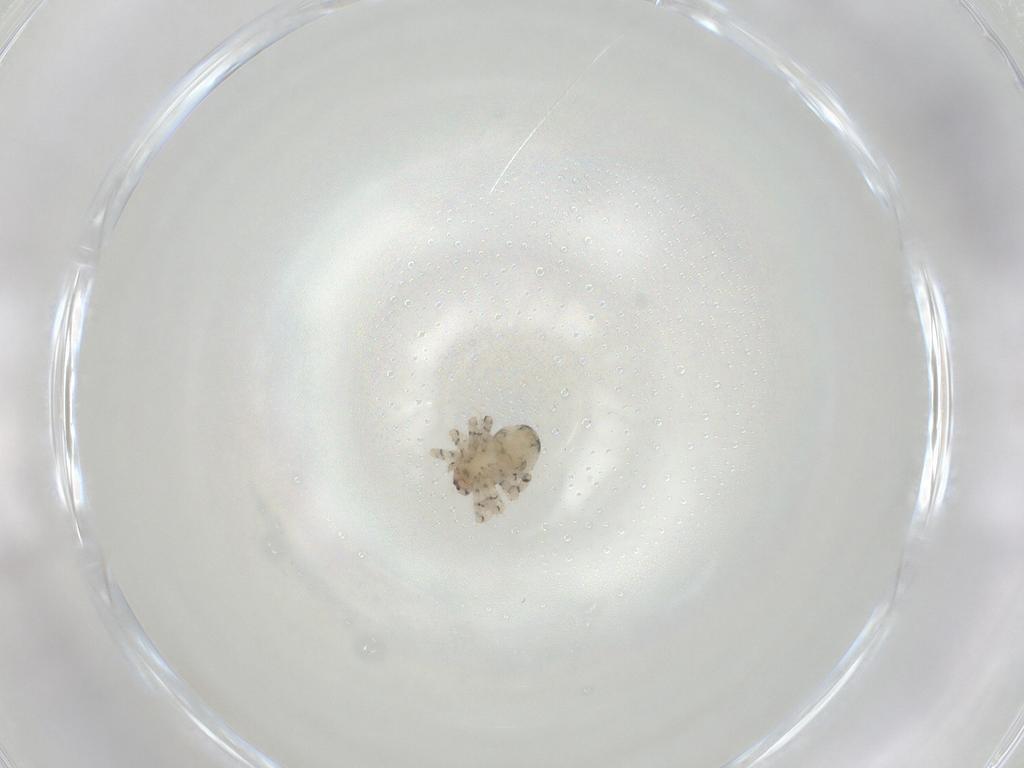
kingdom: Animalia
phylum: Arthropoda
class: Arachnida
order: Araneae
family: Theridiidae
